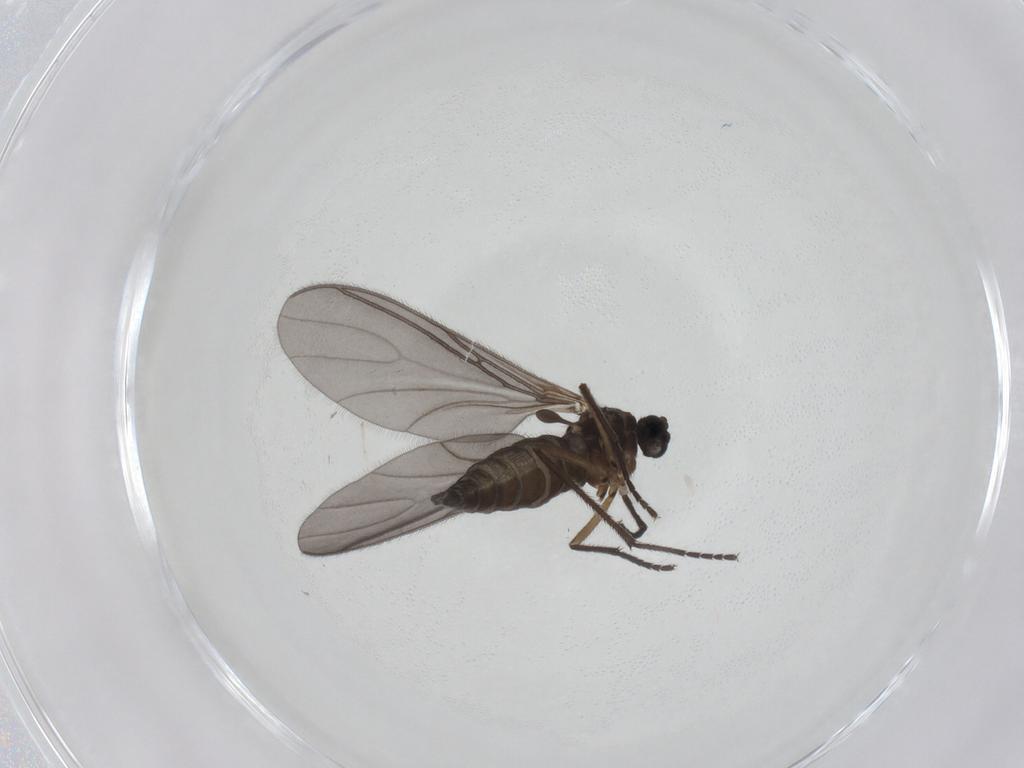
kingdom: Animalia
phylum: Arthropoda
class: Insecta
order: Diptera
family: Sciaridae
